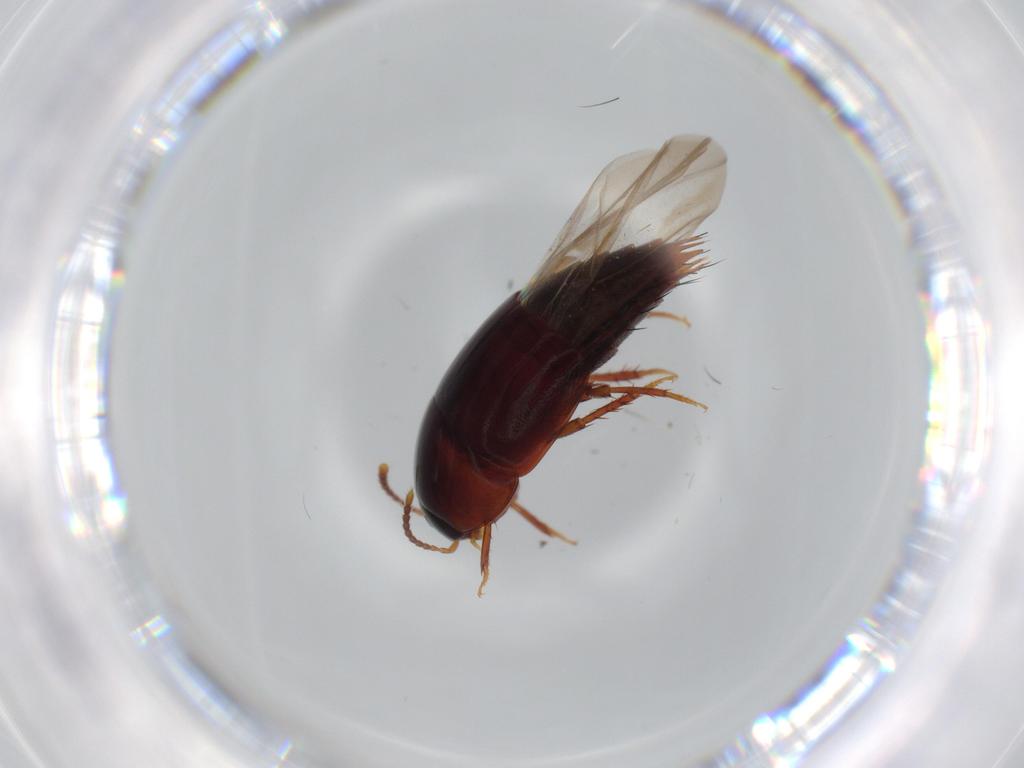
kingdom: Animalia
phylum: Arthropoda
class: Insecta
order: Coleoptera
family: Staphylinidae
